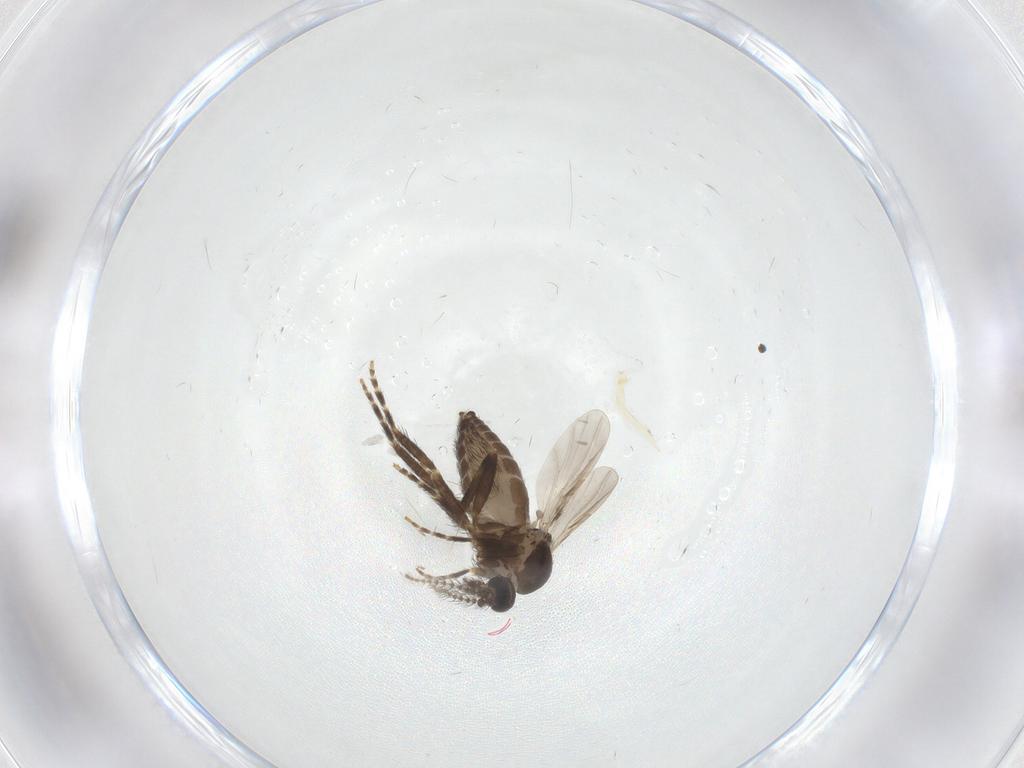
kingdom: Animalia
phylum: Arthropoda
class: Insecta
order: Diptera
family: Ceratopogonidae
